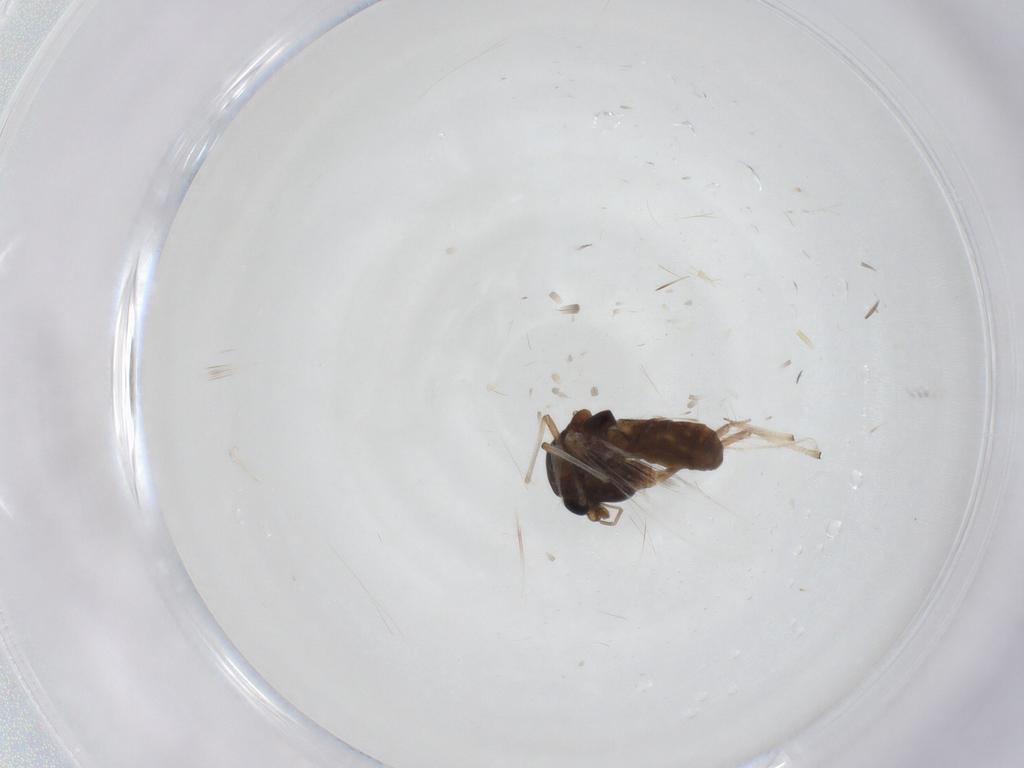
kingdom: Animalia
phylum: Arthropoda
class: Insecta
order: Diptera
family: Chironomidae
